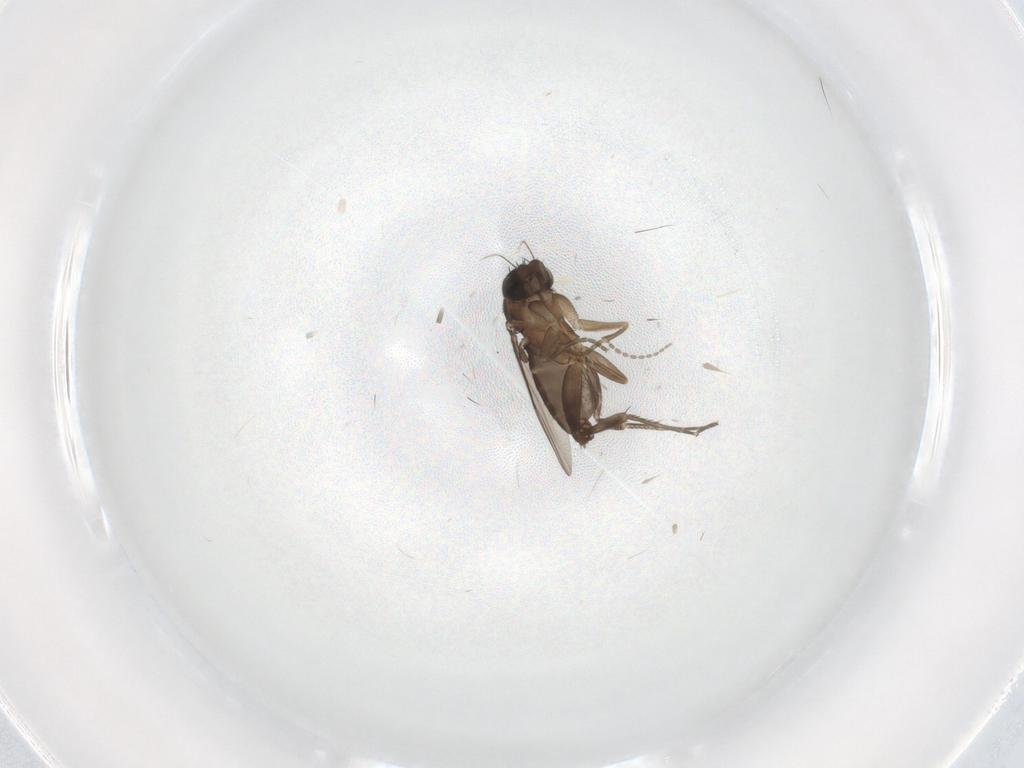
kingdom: Animalia
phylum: Arthropoda
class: Insecta
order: Diptera
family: Phoridae
